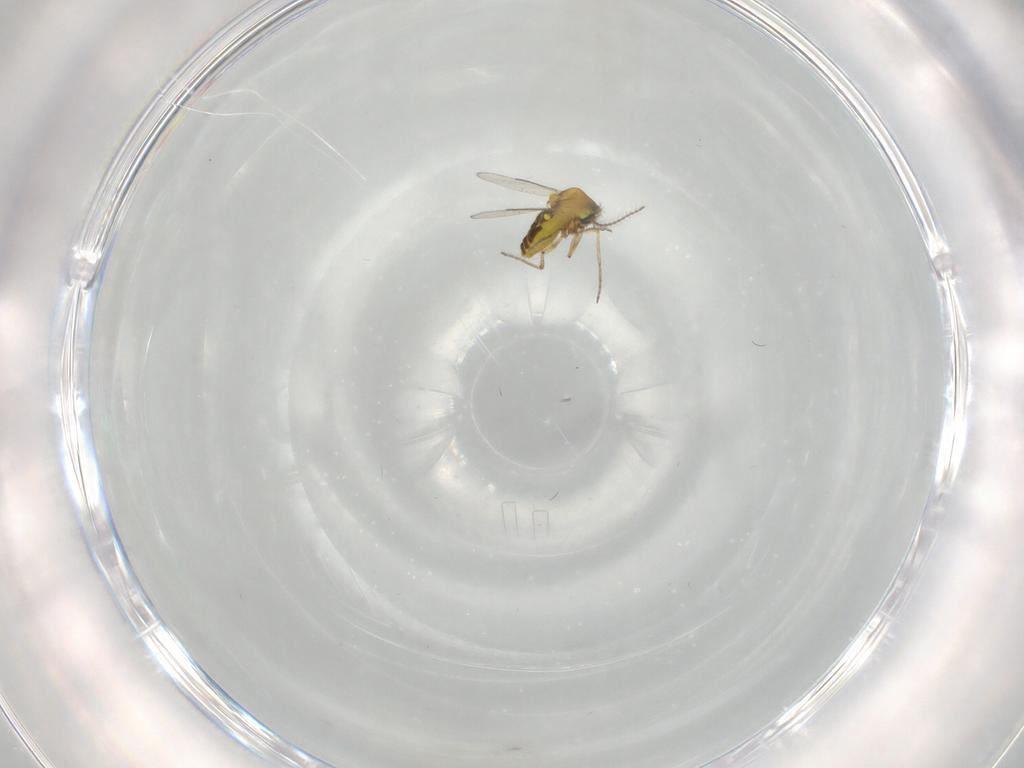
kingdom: Animalia
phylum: Arthropoda
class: Insecta
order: Diptera
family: Ceratopogonidae
